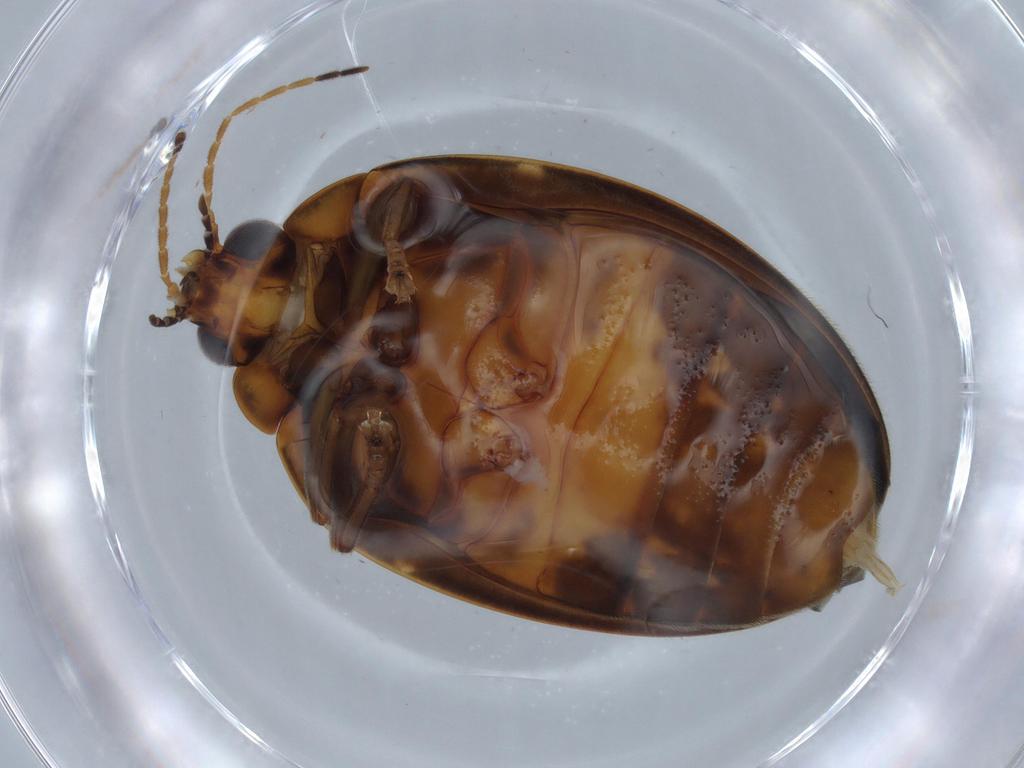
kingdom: Animalia
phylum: Arthropoda
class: Insecta
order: Coleoptera
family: Scirtidae
